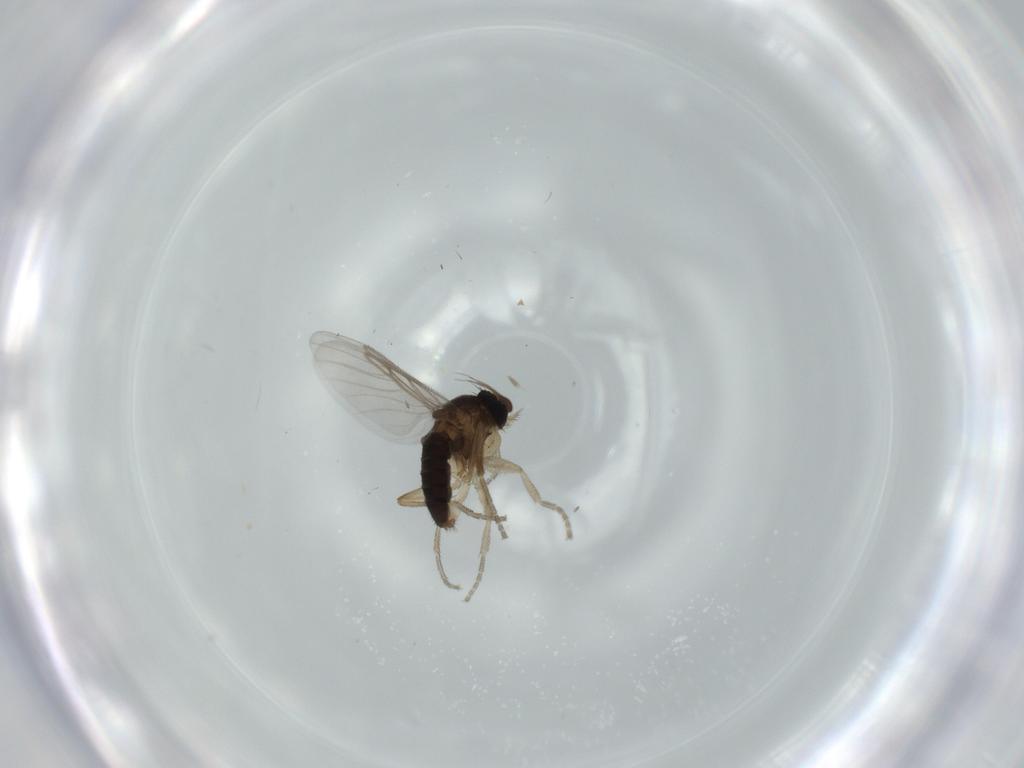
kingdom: Animalia
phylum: Arthropoda
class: Insecta
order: Diptera
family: Phoridae
